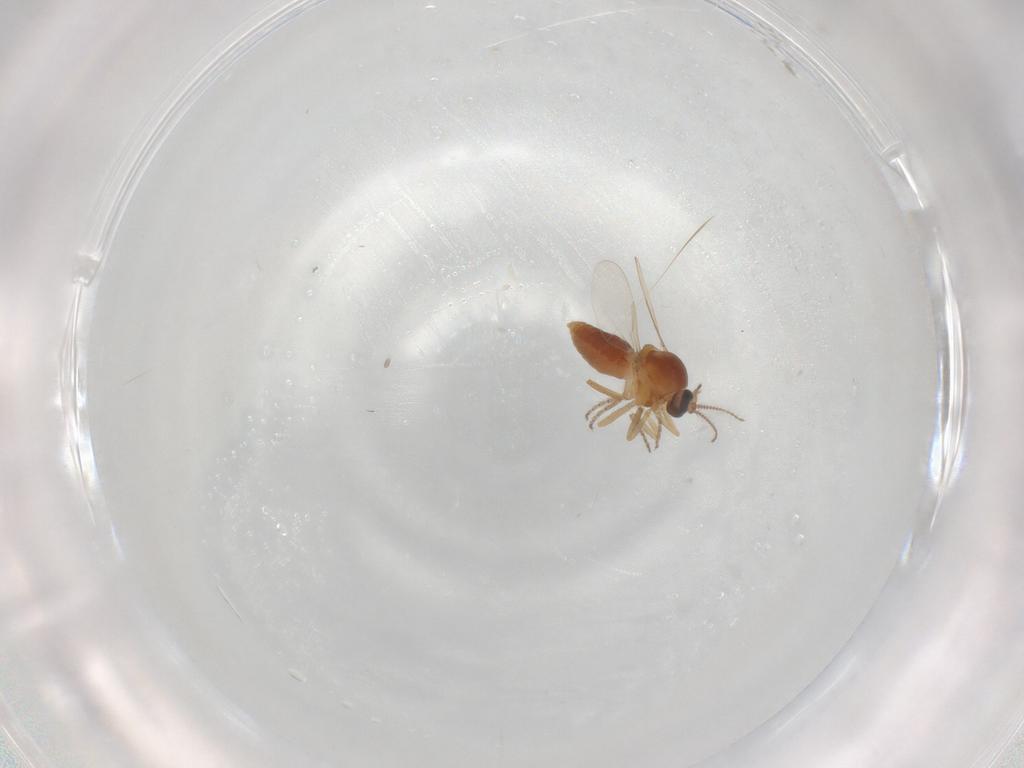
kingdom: Animalia
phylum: Arthropoda
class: Insecta
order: Diptera
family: Ceratopogonidae
